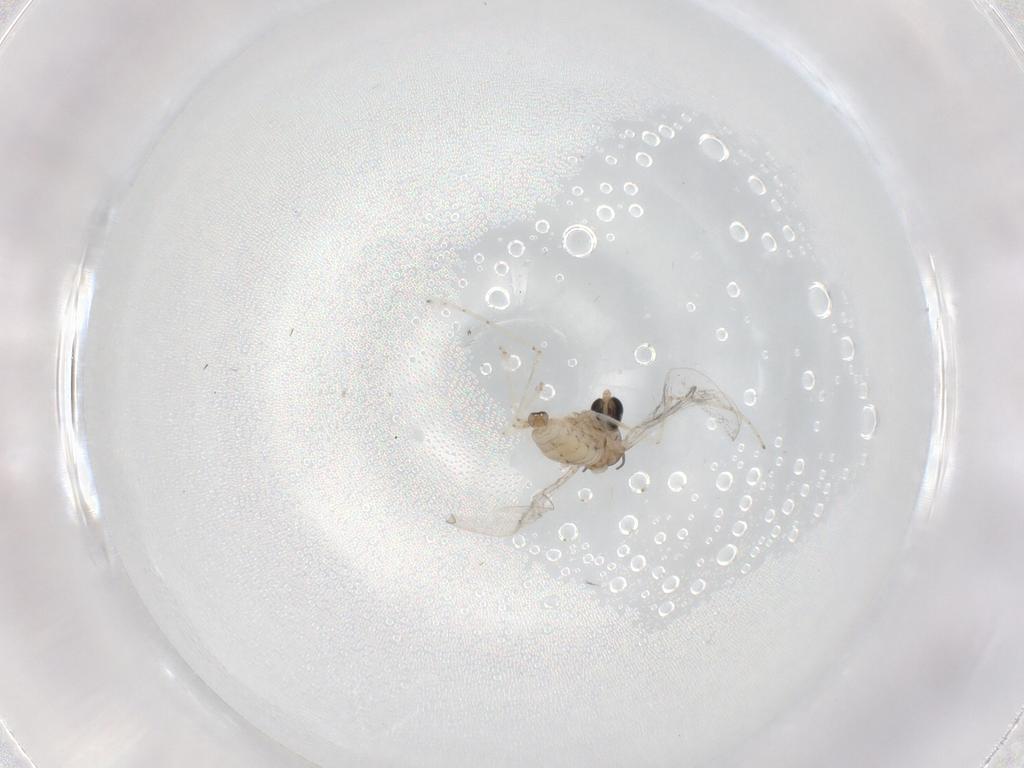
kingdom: Animalia
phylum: Arthropoda
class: Insecta
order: Diptera
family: Cecidomyiidae
